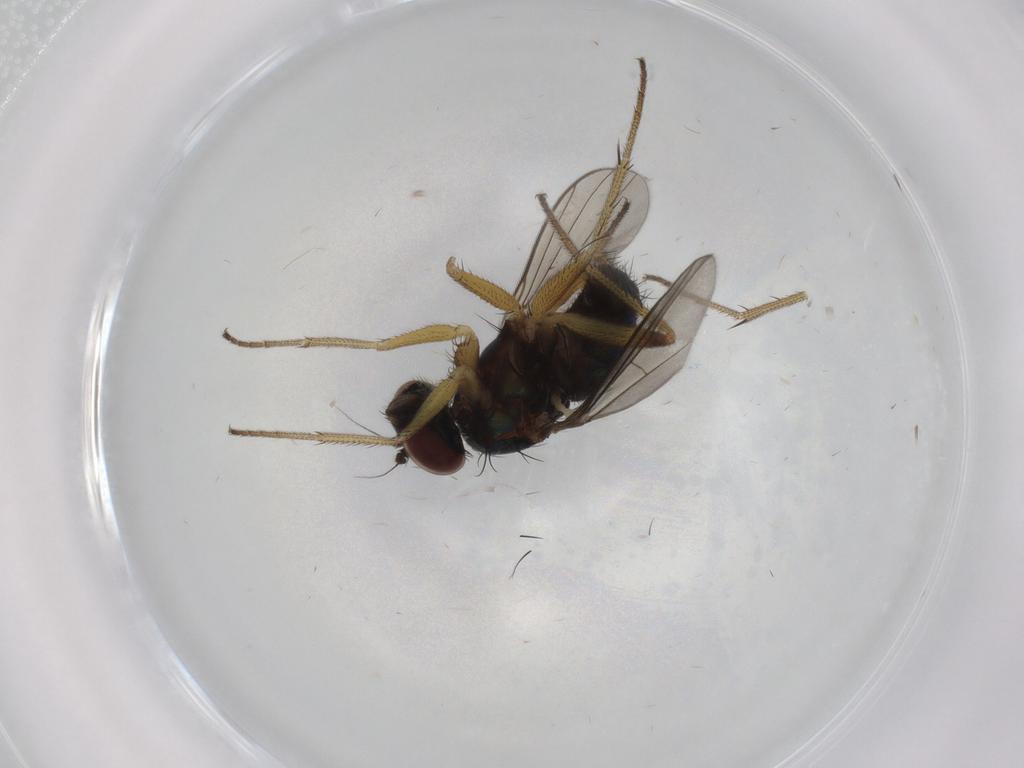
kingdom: Animalia
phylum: Arthropoda
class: Insecta
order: Diptera
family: Dolichopodidae
